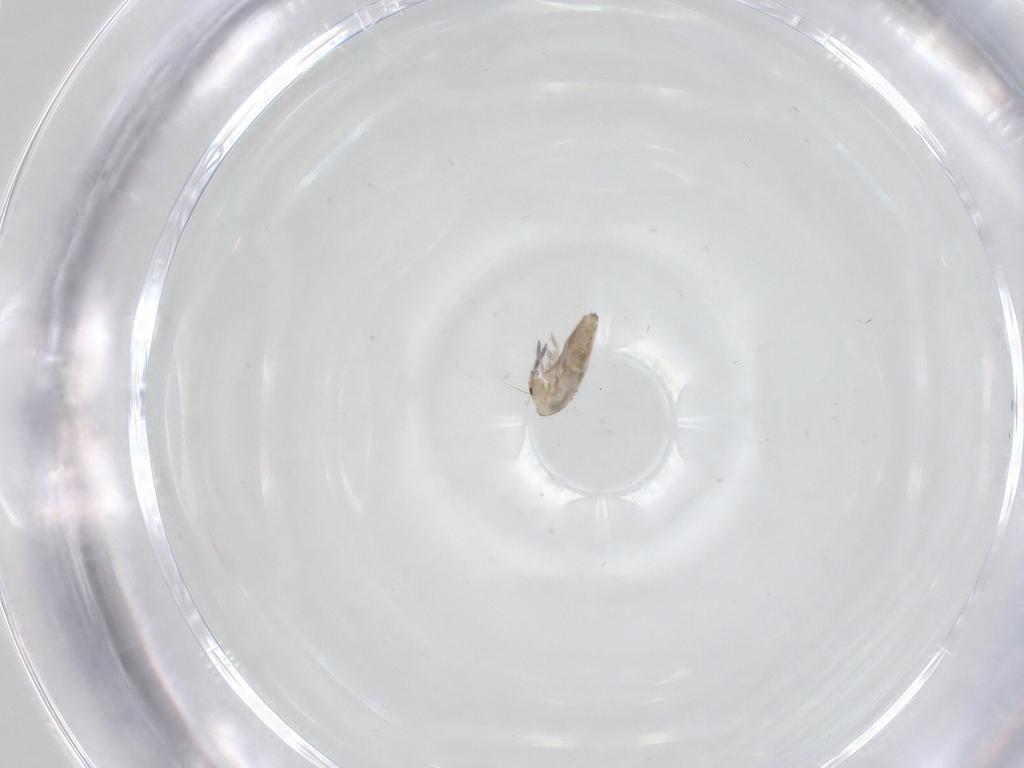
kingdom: Animalia
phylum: Arthropoda
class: Collembola
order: Entomobryomorpha
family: Entomobryidae
